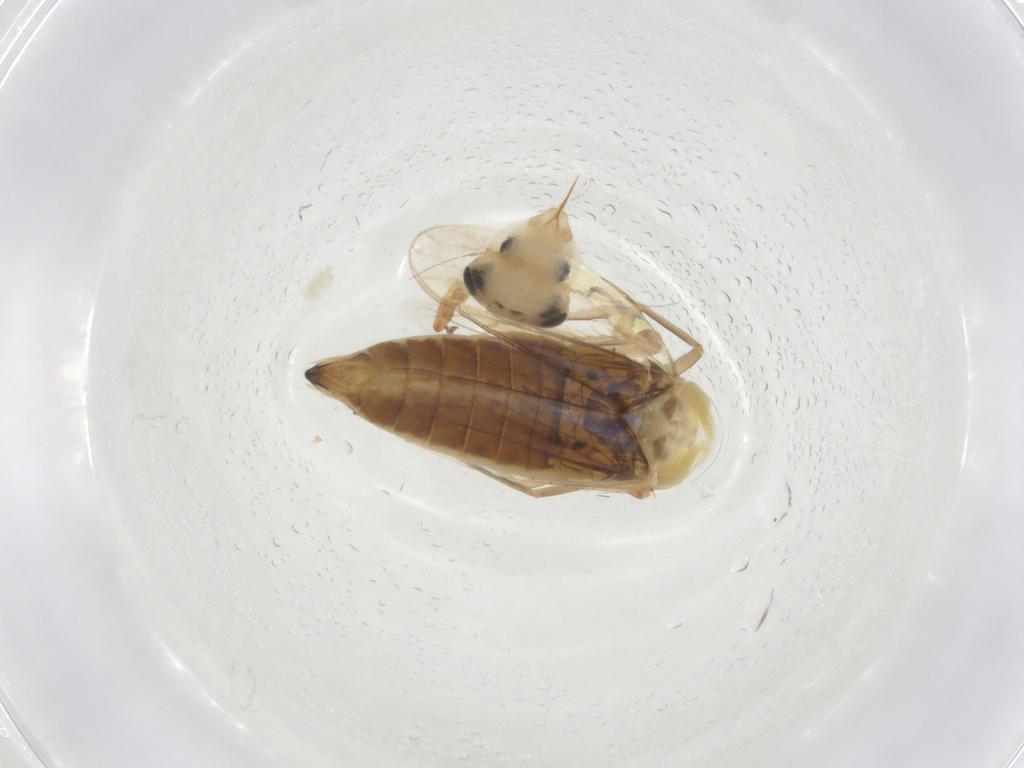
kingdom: Animalia
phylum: Arthropoda
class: Insecta
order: Hemiptera
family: Cicadellidae
